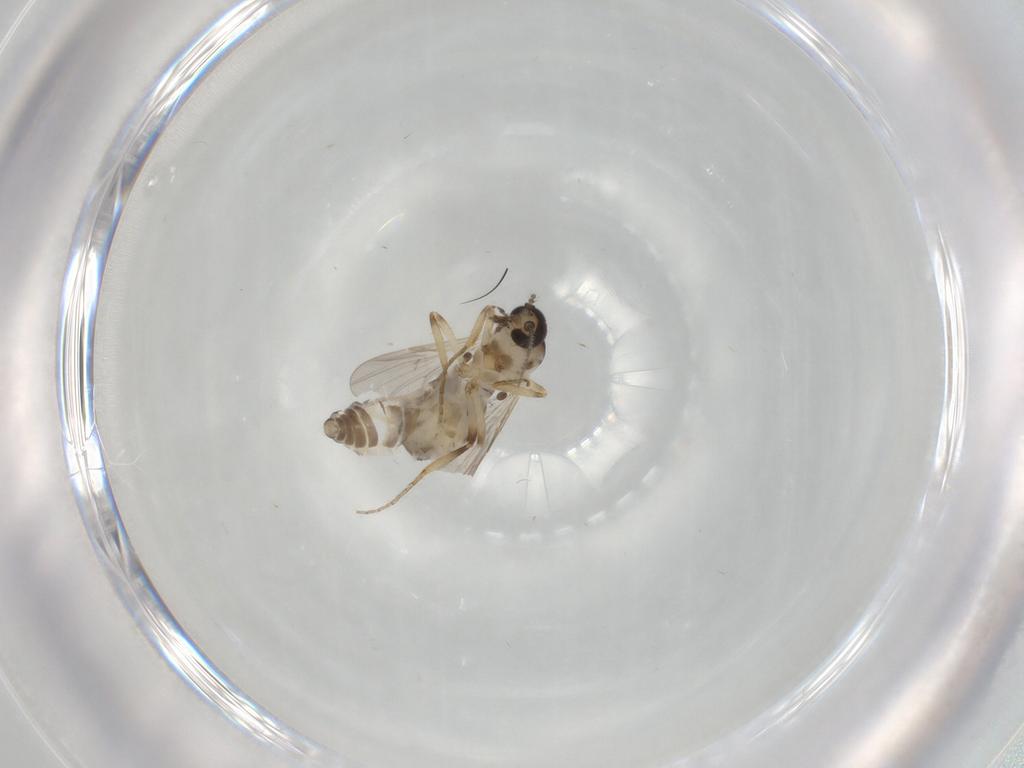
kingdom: Animalia
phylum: Arthropoda
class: Insecta
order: Diptera
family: Ceratopogonidae
